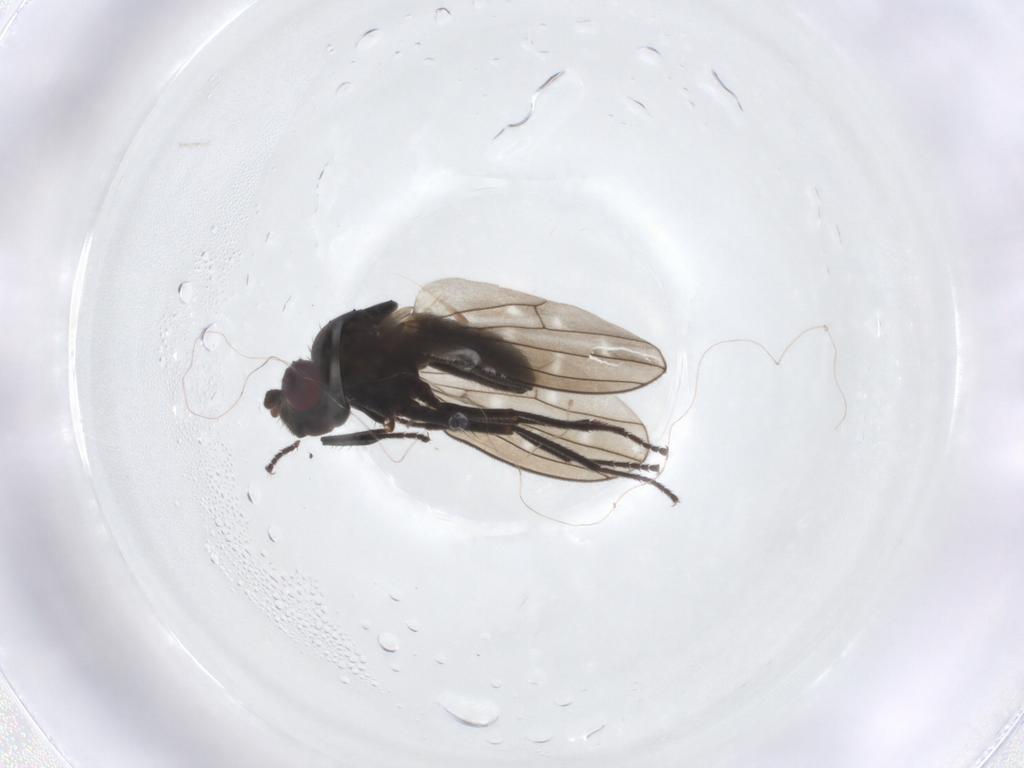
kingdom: Animalia
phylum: Arthropoda
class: Insecta
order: Diptera
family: Ephydridae
